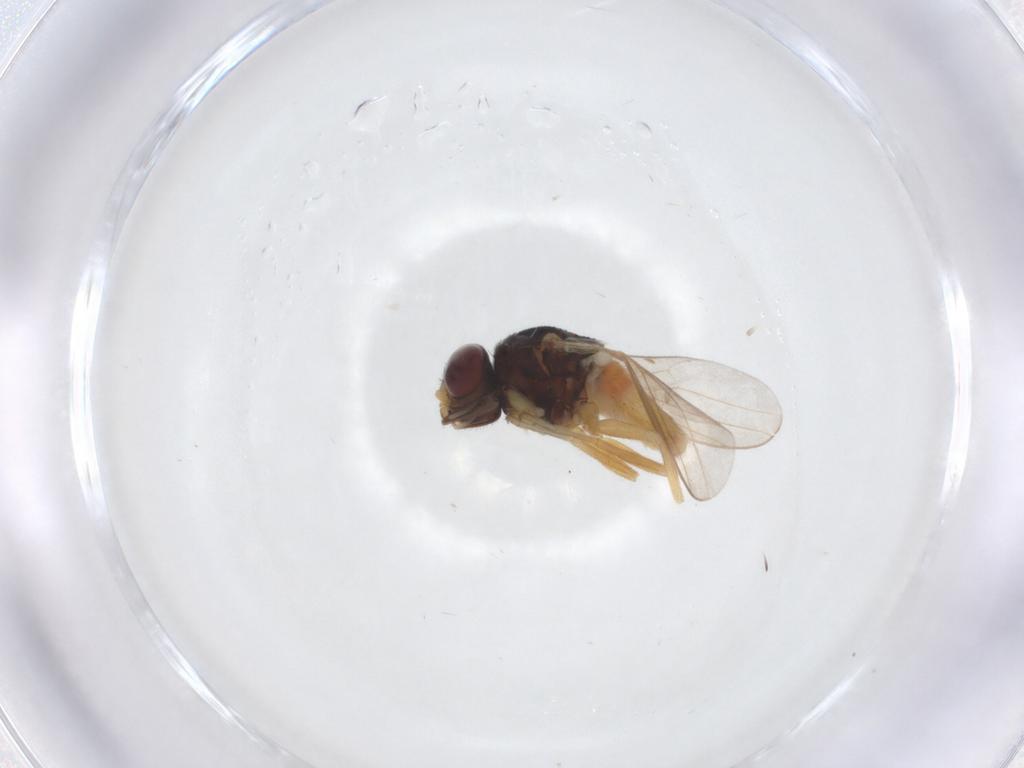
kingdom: Animalia
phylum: Arthropoda
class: Insecta
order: Diptera
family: Chloropidae
